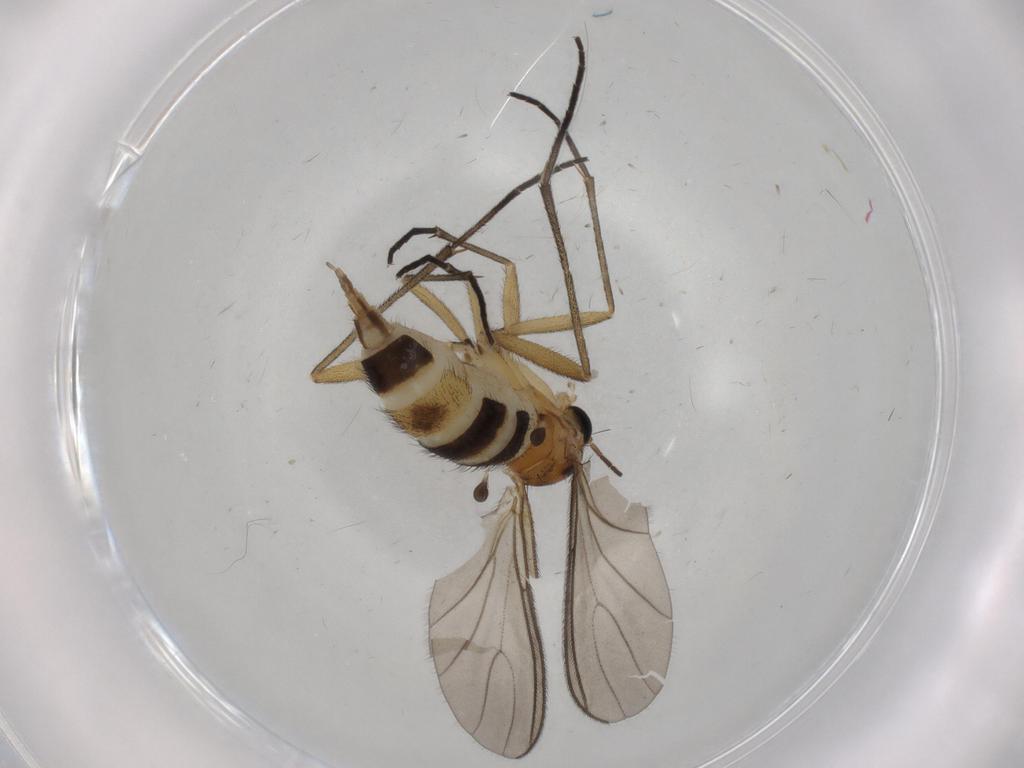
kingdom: Animalia
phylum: Arthropoda
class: Insecta
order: Diptera
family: Sciaridae
